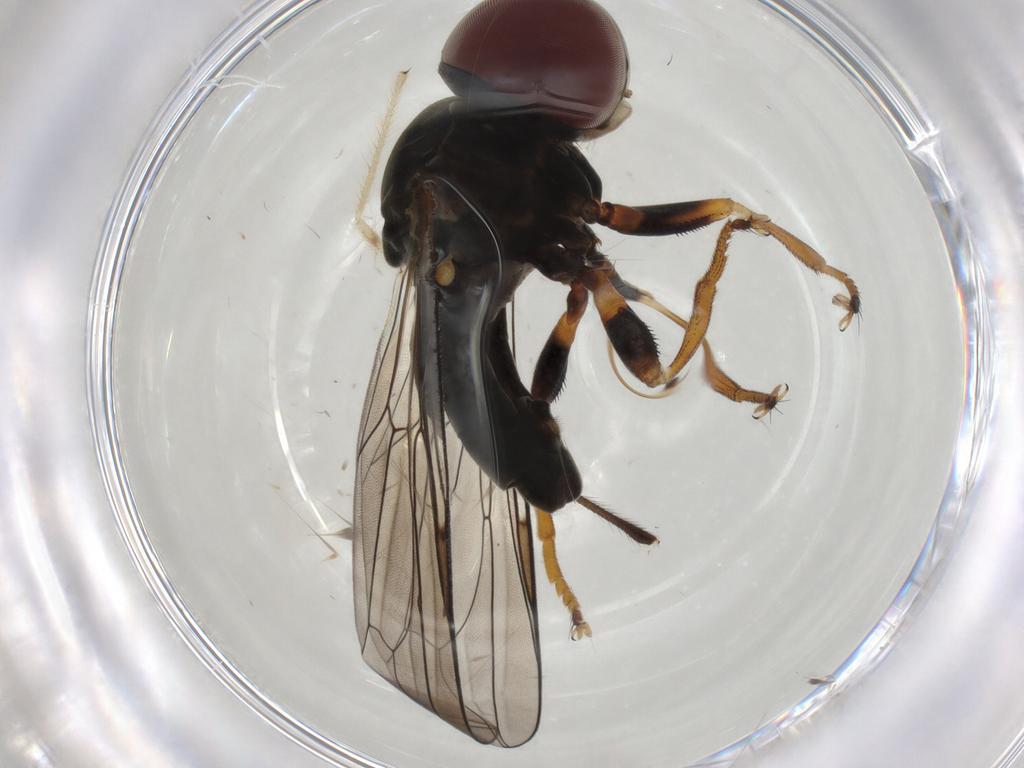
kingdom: Animalia
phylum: Arthropoda
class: Insecta
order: Diptera
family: Pipunculidae
